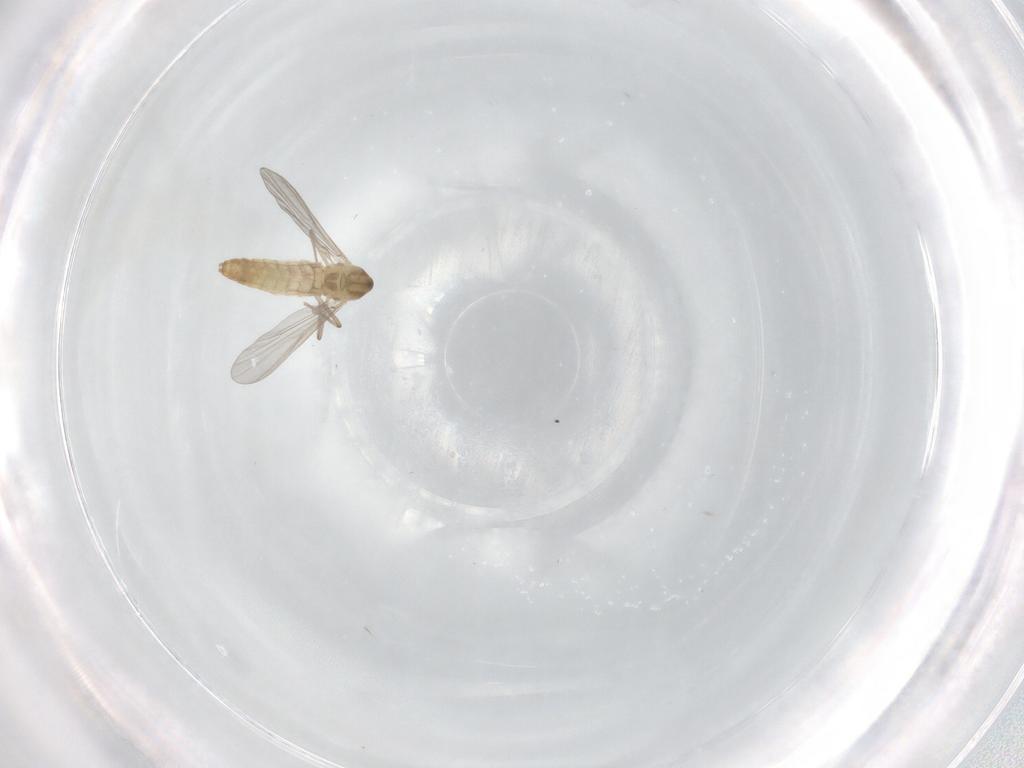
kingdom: Animalia
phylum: Arthropoda
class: Insecta
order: Diptera
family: Chironomidae
